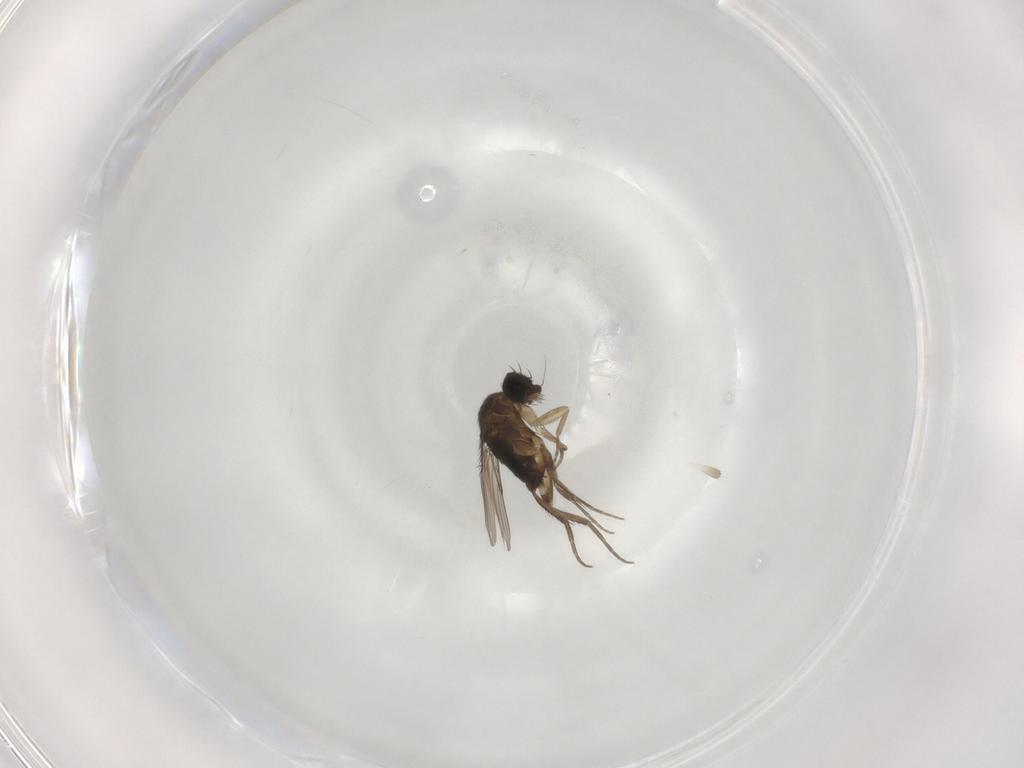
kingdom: Animalia
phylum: Arthropoda
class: Insecta
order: Diptera
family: Phoridae
